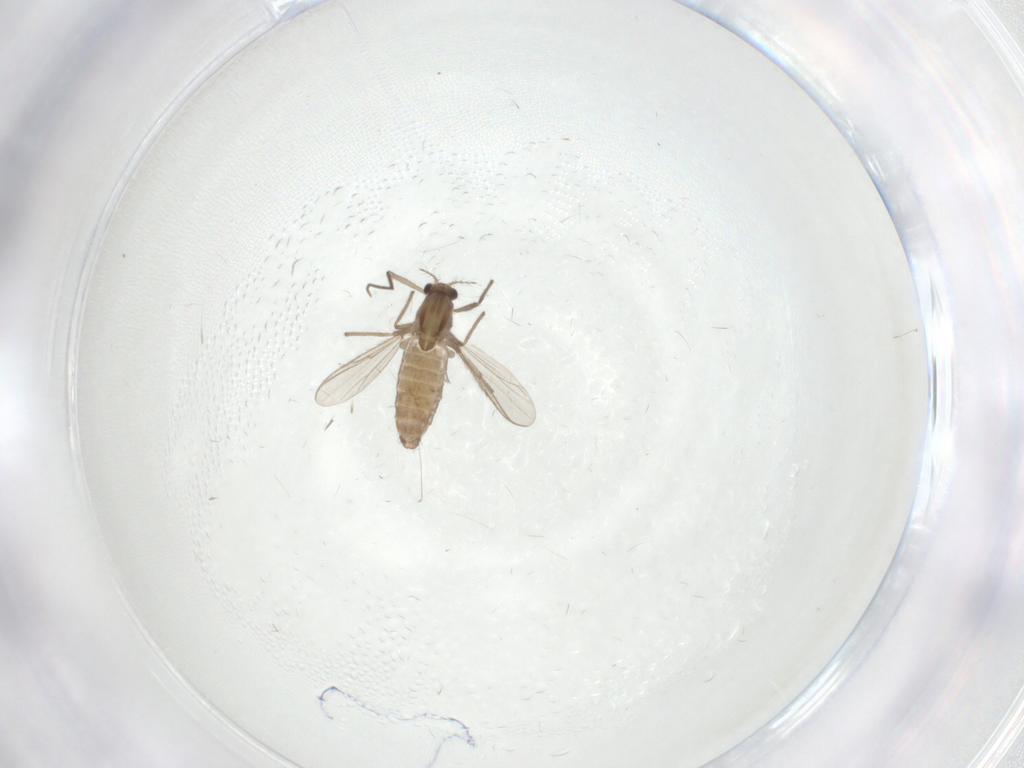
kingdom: Animalia
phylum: Arthropoda
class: Insecta
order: Diptera
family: Chironomidae
